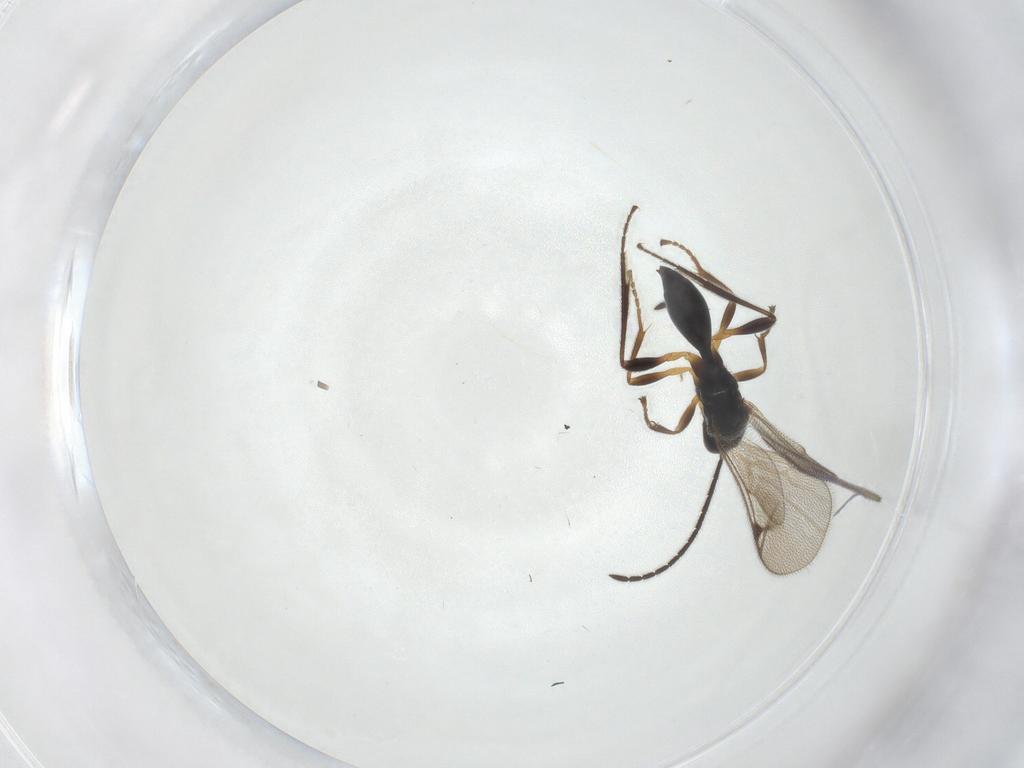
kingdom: Animalia
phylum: Arthropoda
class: Insecta
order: Hymenoptera
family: Proctotrupidae
